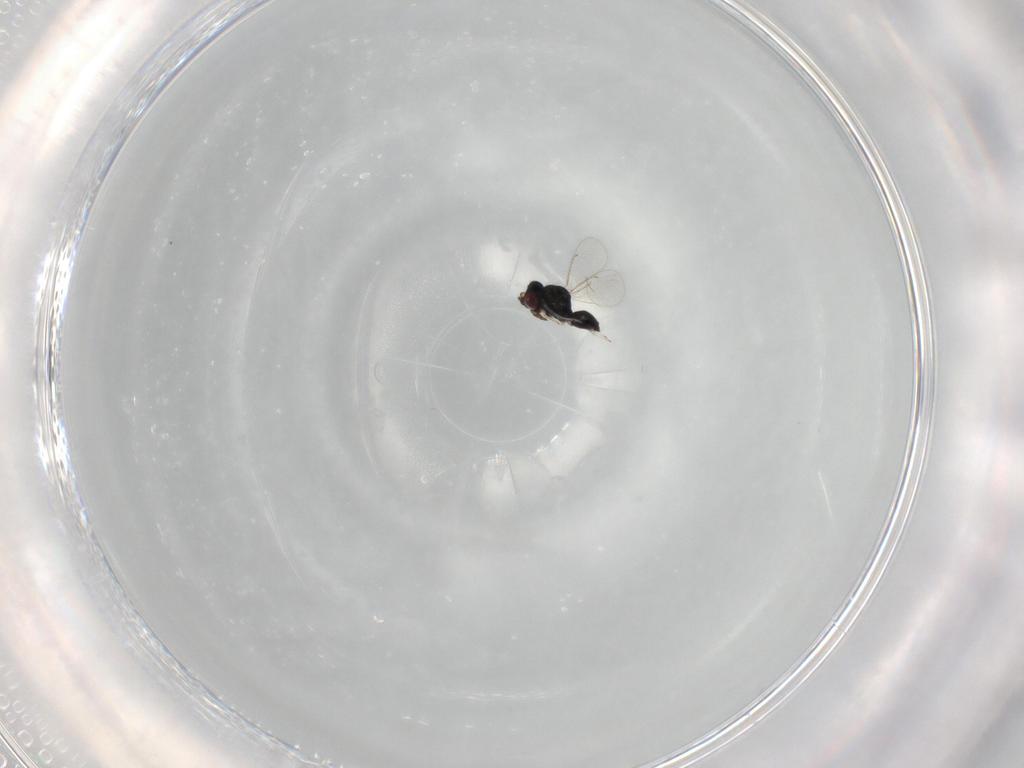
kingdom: Animalia
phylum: Arthropoda
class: Insecta
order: Hymenoptera
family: Eulophidae
